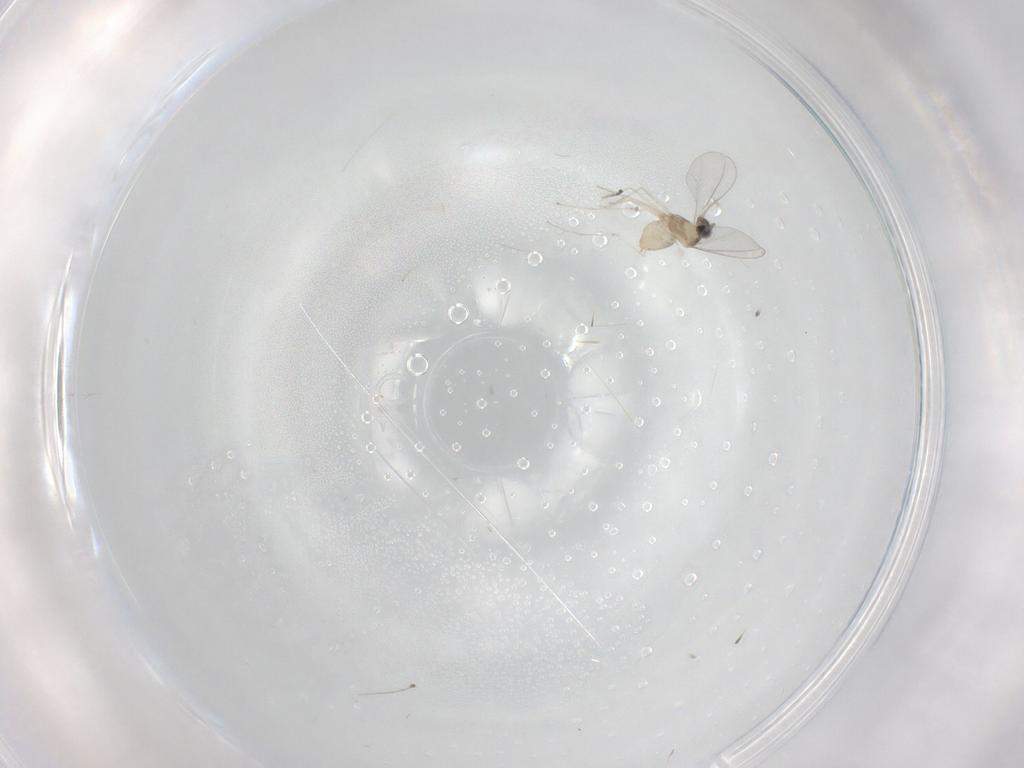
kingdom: Animalia
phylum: Arthropoda
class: Insecta
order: Diptera
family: Cecidomyiidae
